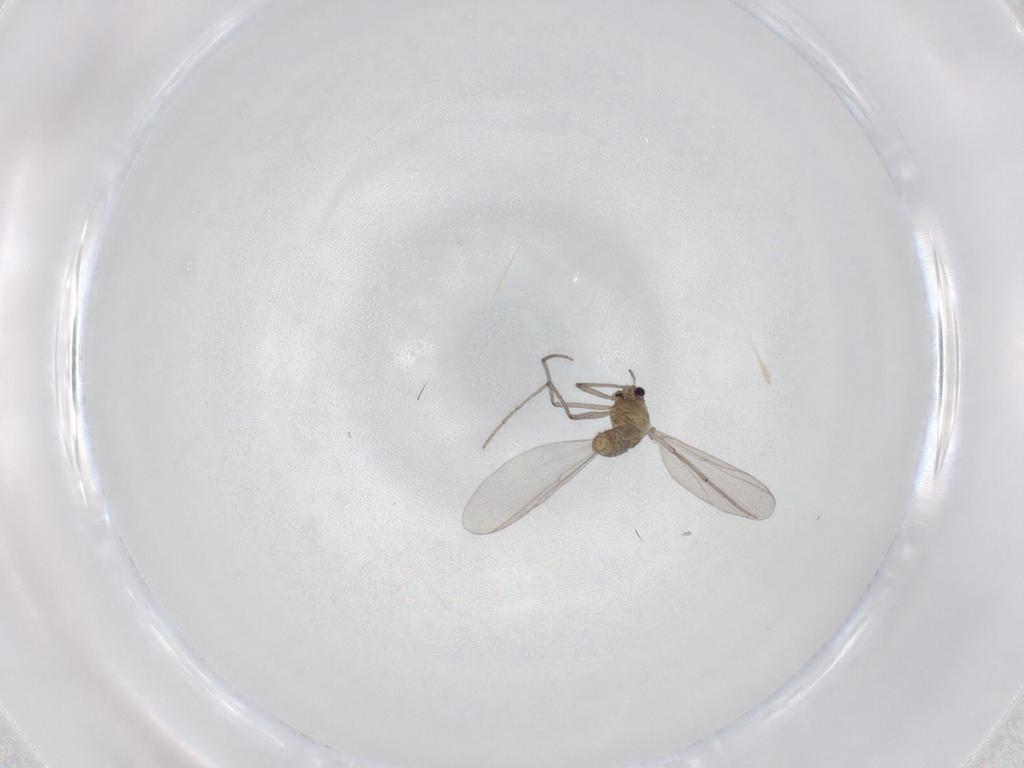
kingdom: Animalia
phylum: Arthropoda
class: Insecta
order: Diptera
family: Chironomidae
